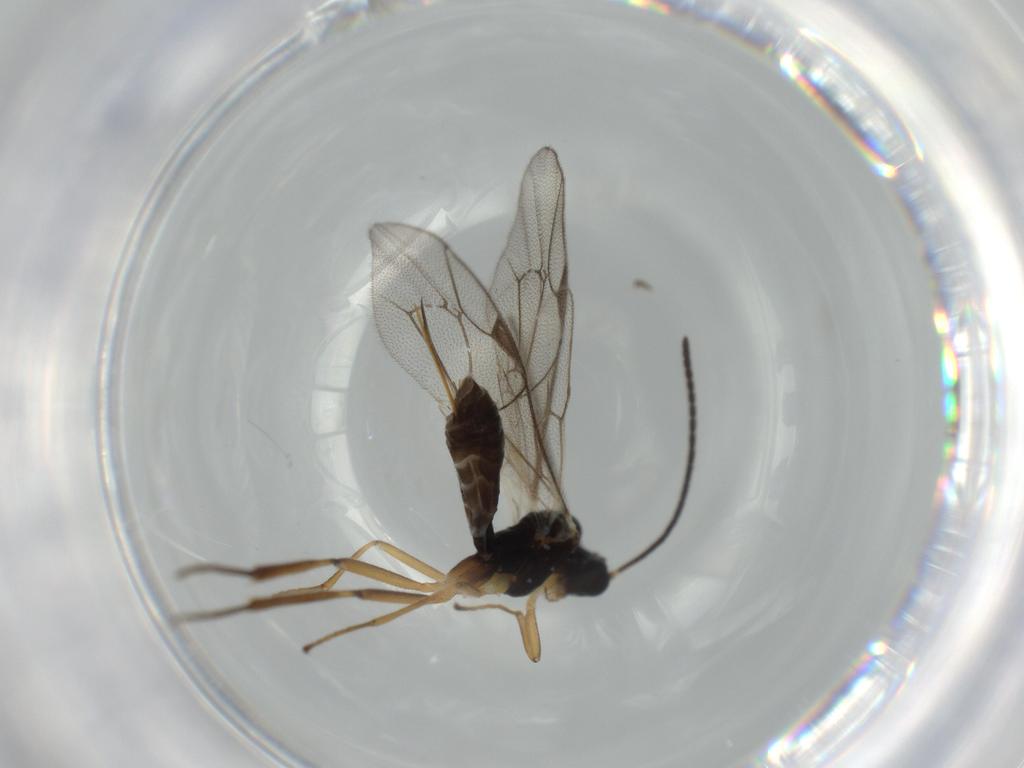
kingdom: Animalia
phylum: Arthropoda
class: Insecta
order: Hymenoptera
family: Ichneumonidae
